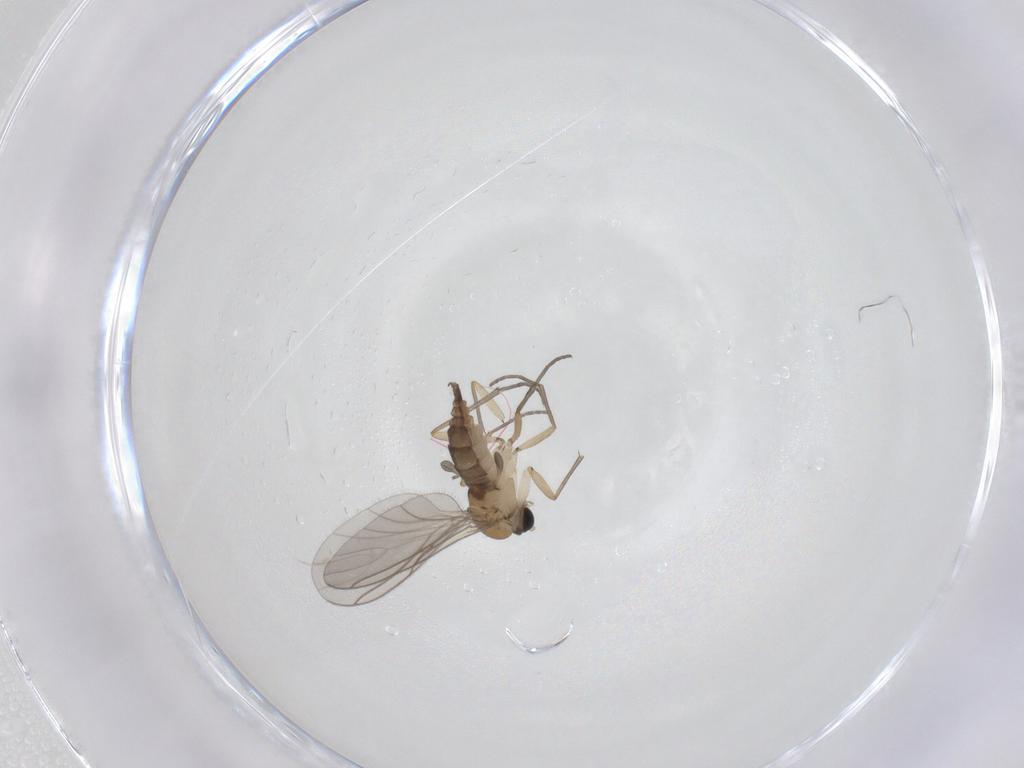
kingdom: Animalia
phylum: Arthropoda
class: Insecta
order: Diptera
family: Sciaridae
